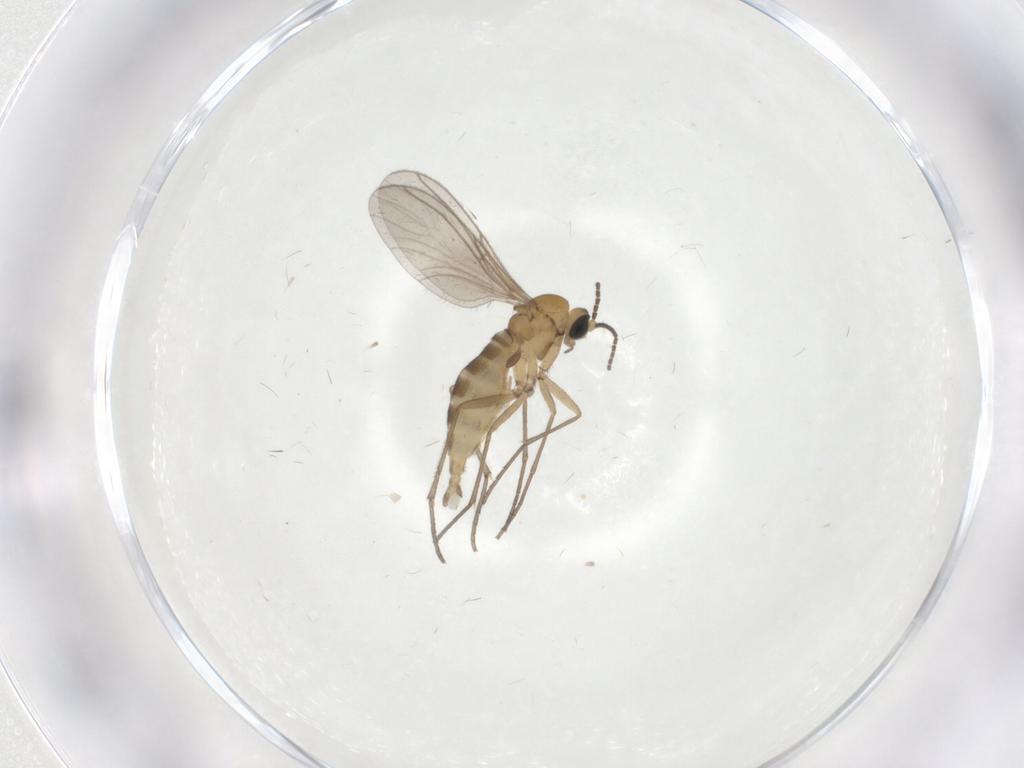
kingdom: Animalia
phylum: Arthropoda
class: Insecta
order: Diptera
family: Sciaridae
